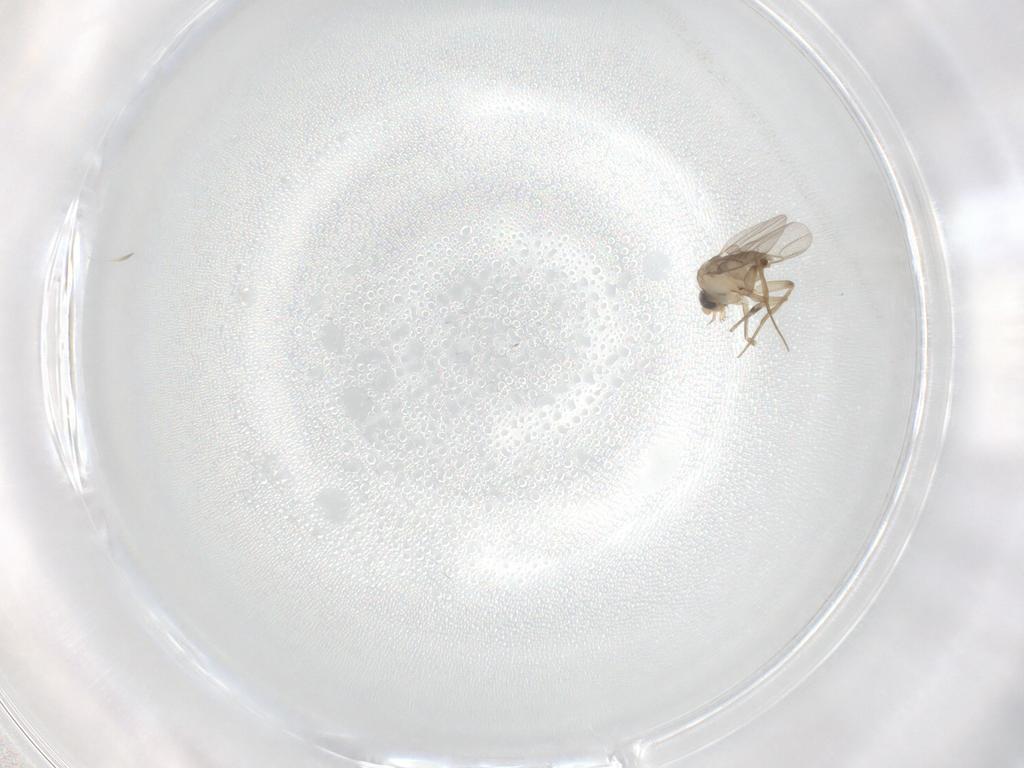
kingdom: Animalia
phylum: Arthropoda
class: Insecta
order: Diptera
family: Phoridae
